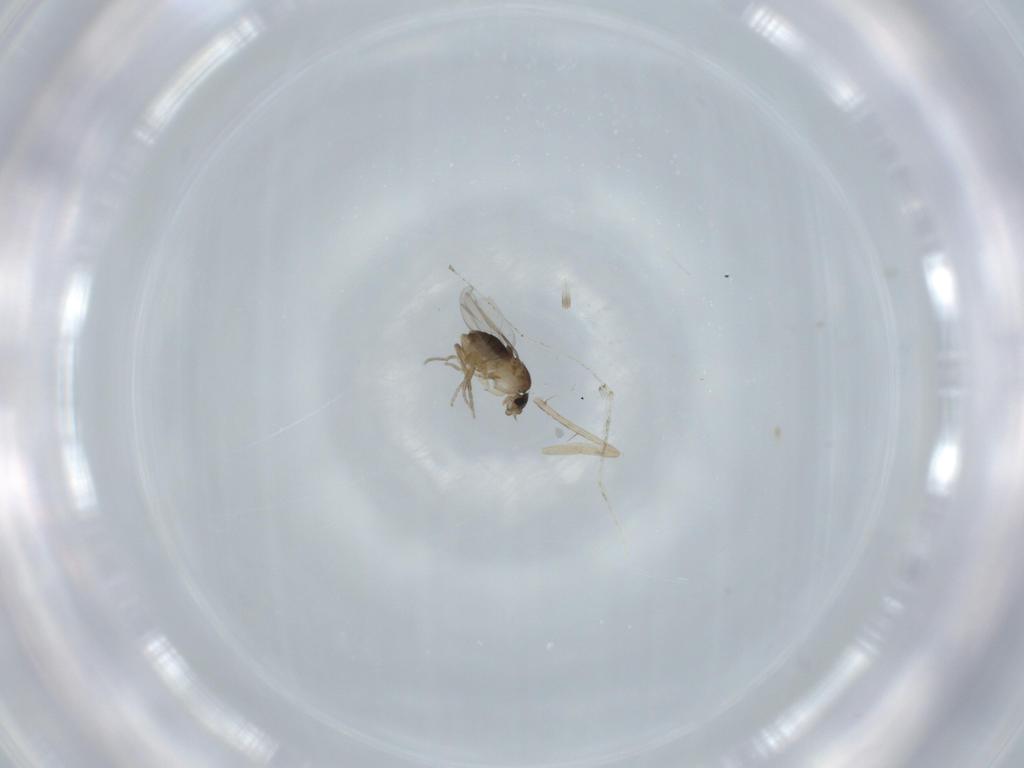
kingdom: Animalia
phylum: Arthropoda
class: Insecta
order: Diptera
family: Phoridae
